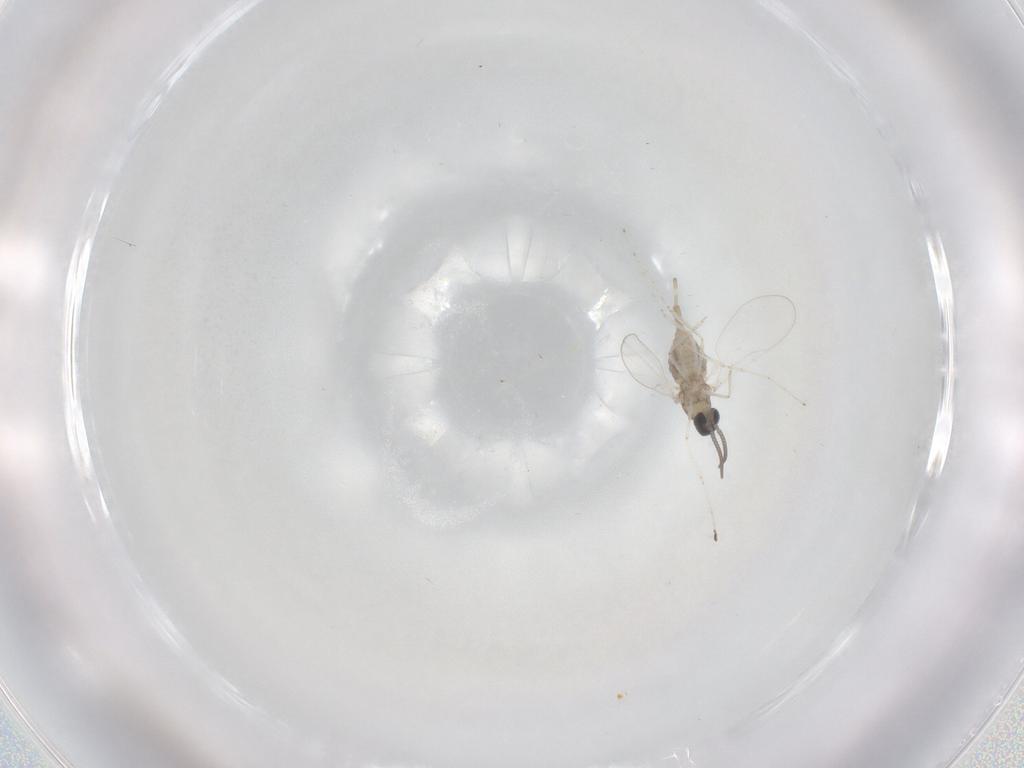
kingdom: Animalia
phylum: Arthropoda
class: Insecta
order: Diptera
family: Cecidomyiidae
